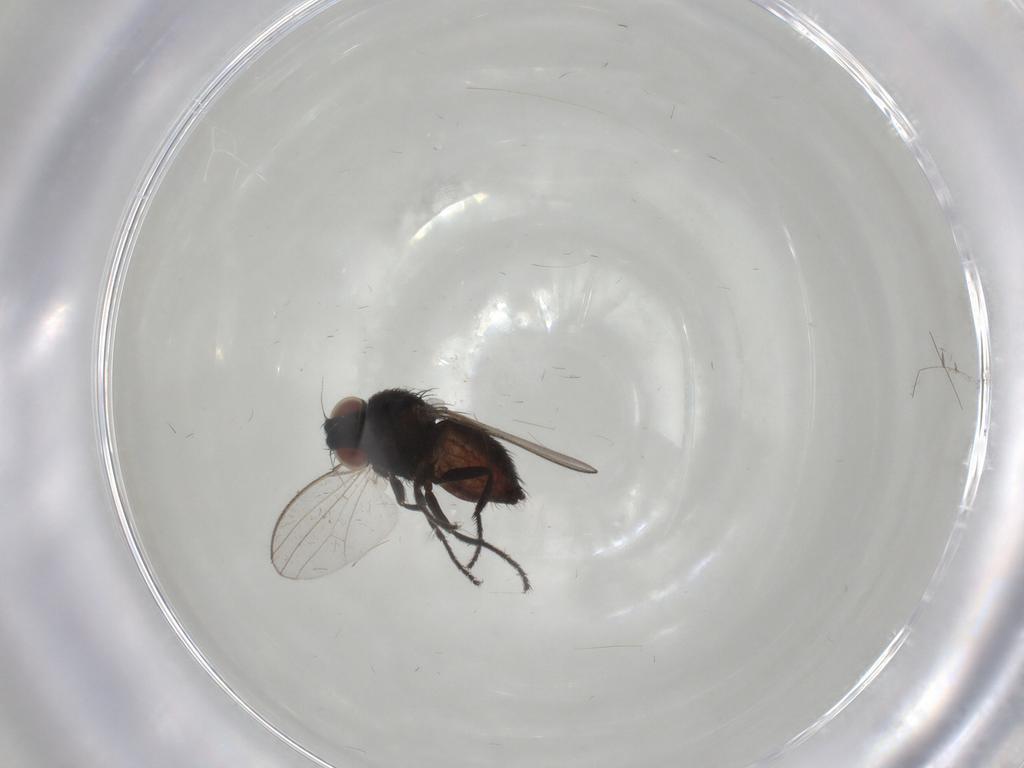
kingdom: Animalia
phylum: Arthropoda
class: Insecta
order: Diptera
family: Milichiidae
